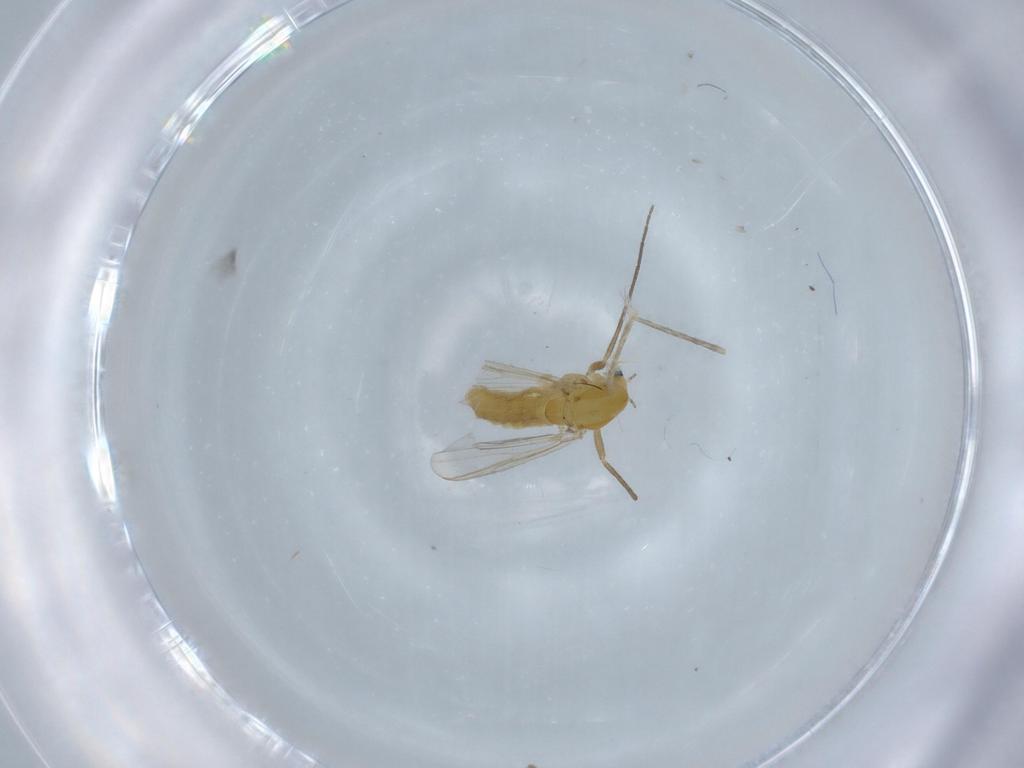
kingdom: Animalia
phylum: Arthropoda
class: Insecta
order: Diptera
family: Chironomidae
